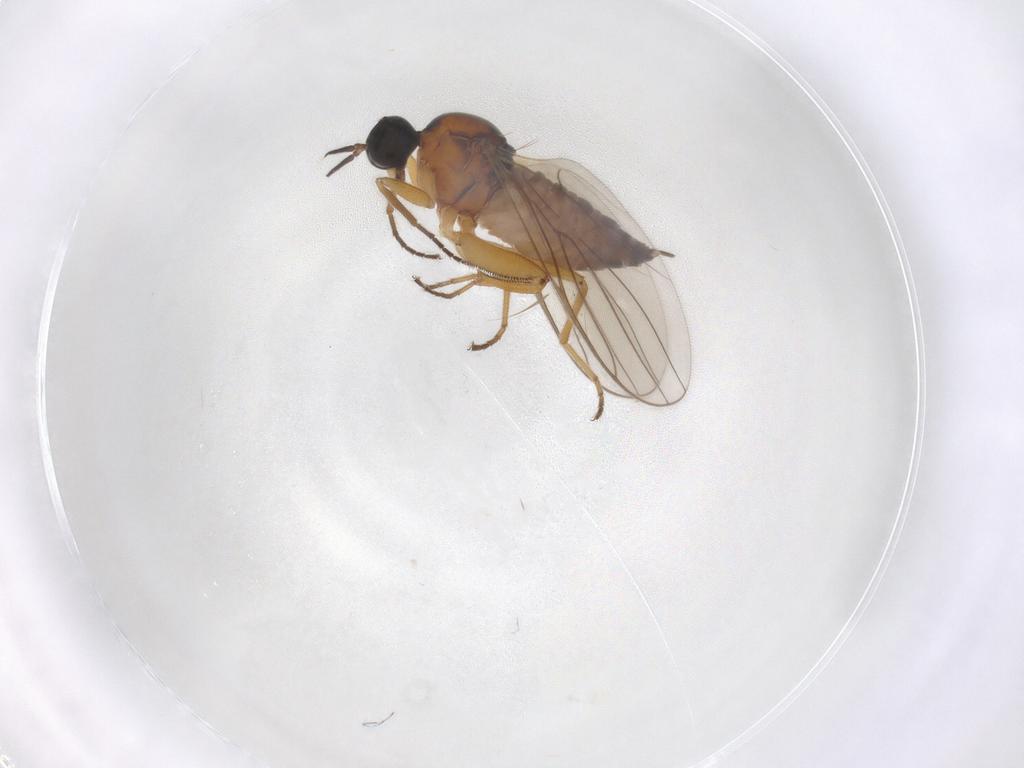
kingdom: Animalia
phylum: Arthropoda
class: Insecta
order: Diptera
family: Hybotidae
